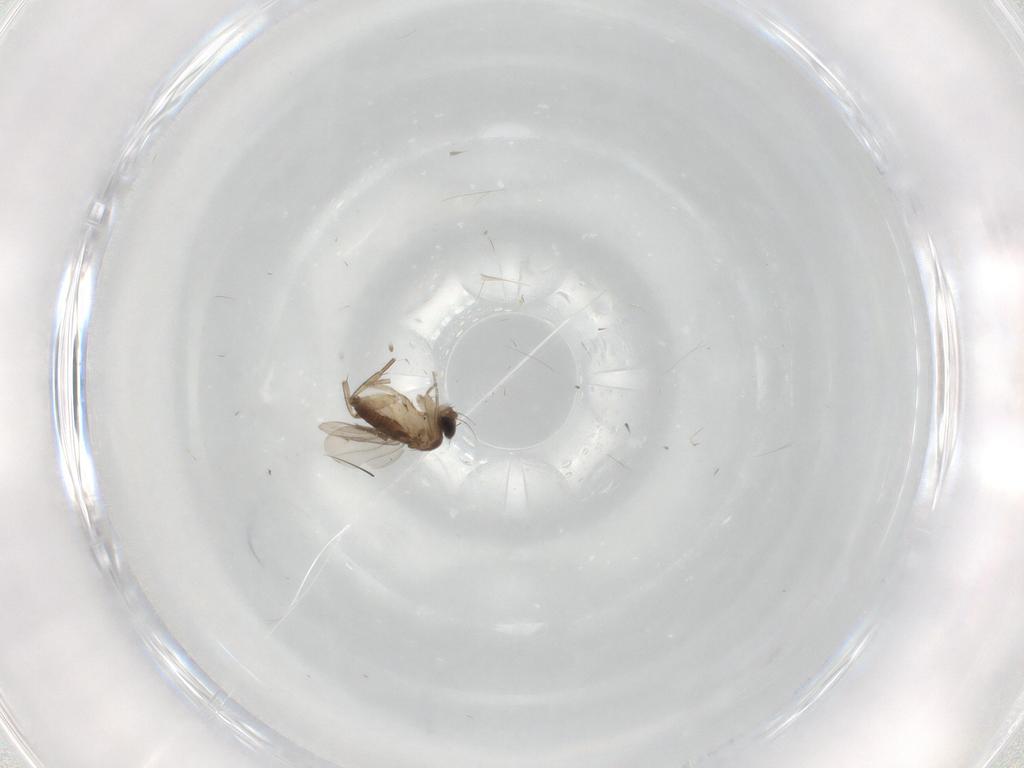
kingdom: Animalia
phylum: Arthropoda
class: Insecta
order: Diptera
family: Phoridae
